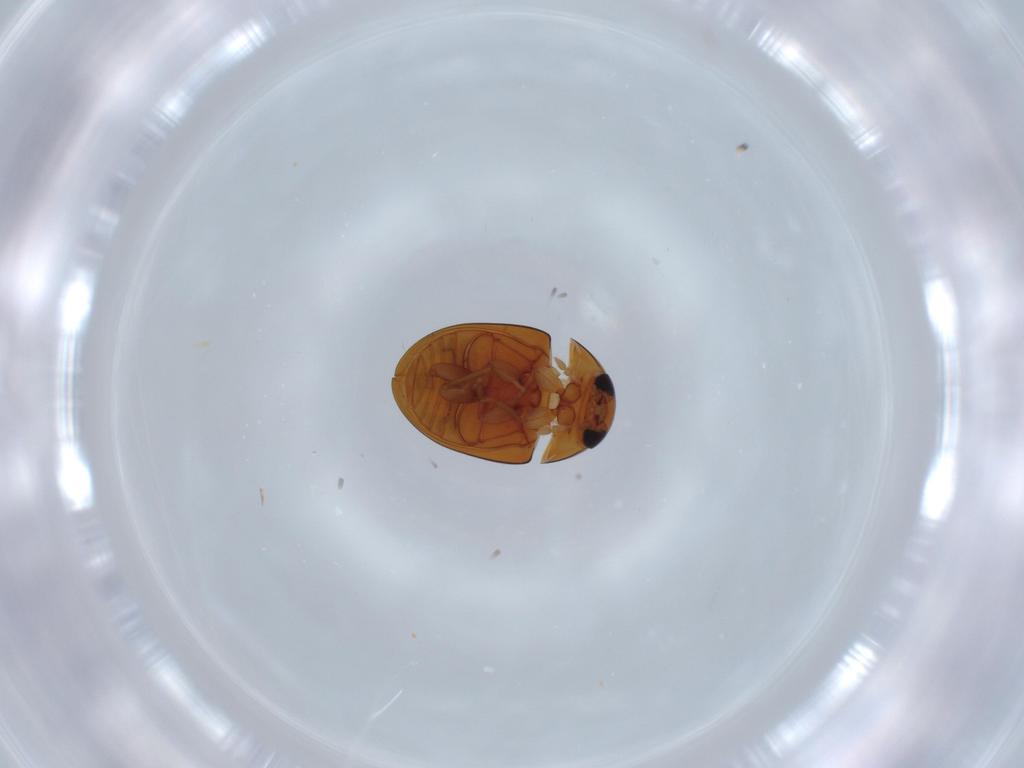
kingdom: Animalia
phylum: Arthropoda
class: Insecta
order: Coleoptera
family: Phalacridae
